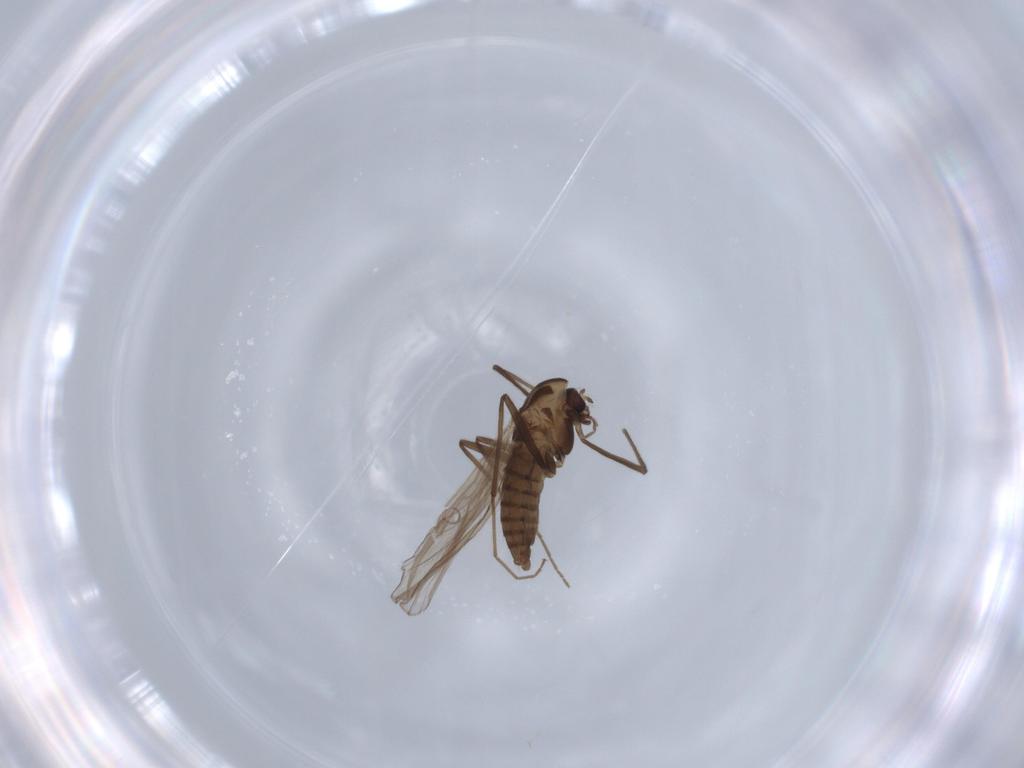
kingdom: Animalia
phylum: Arthropoda
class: Insecta
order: Diptera
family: Chironomidae
